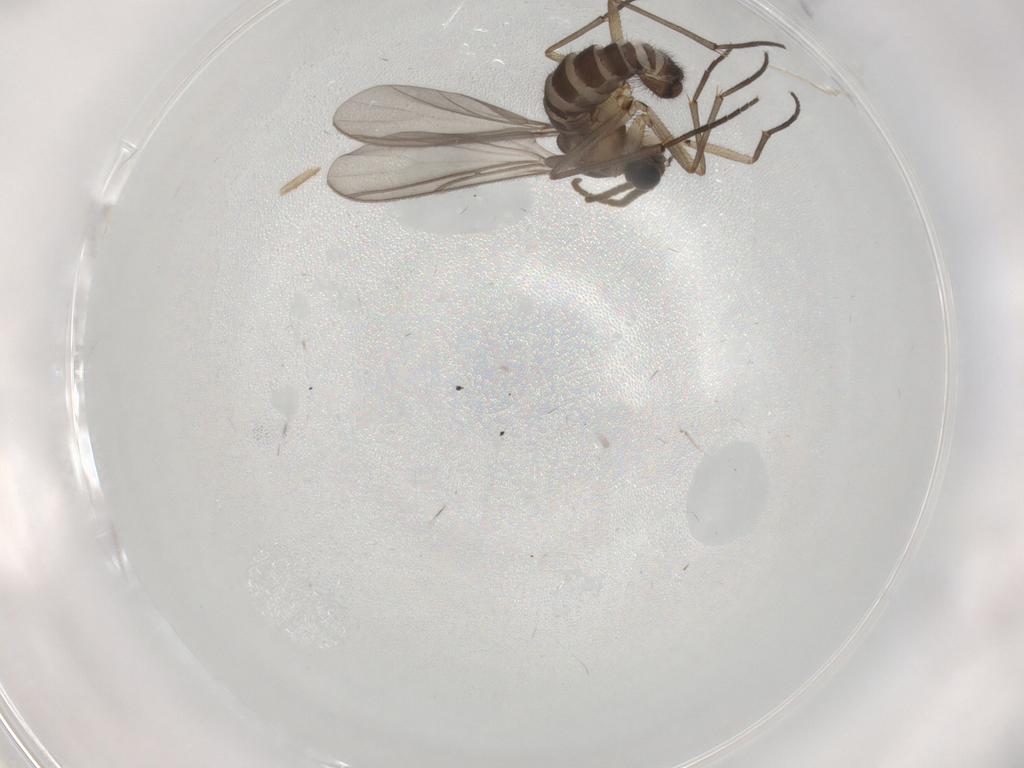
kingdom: Animalia
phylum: Arthropoda
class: Insecta
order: Diptera
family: Sciaridae
